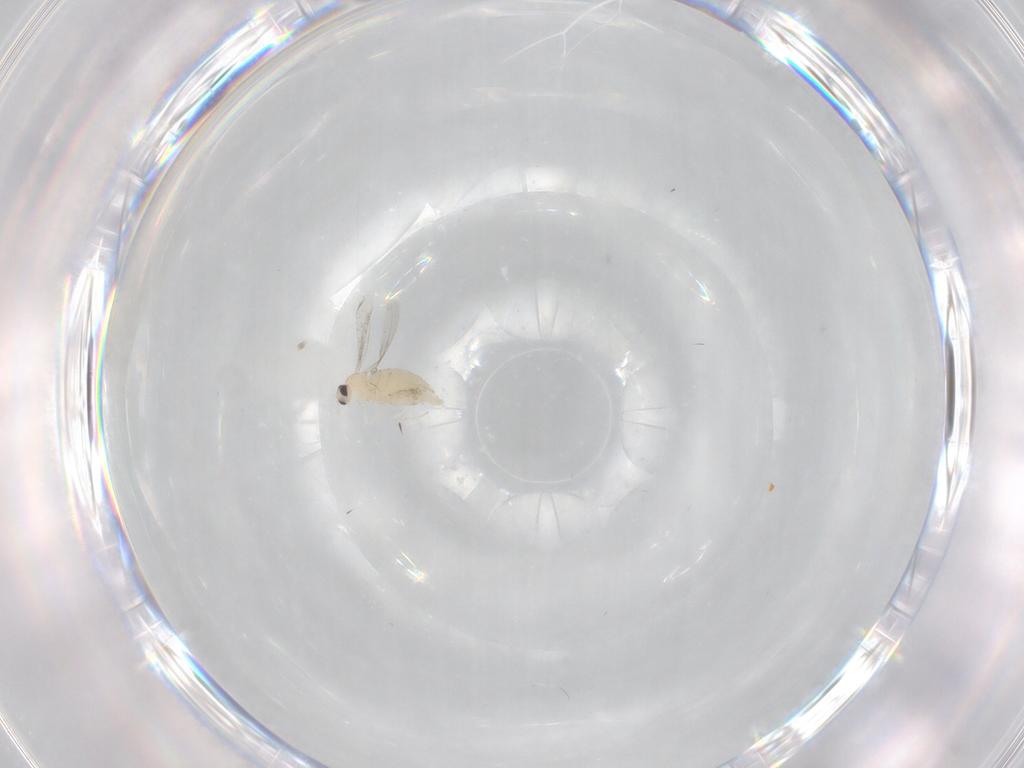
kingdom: Animalia
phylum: Arthropoda
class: Insecta
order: Diptera
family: Cecidomyiidae
